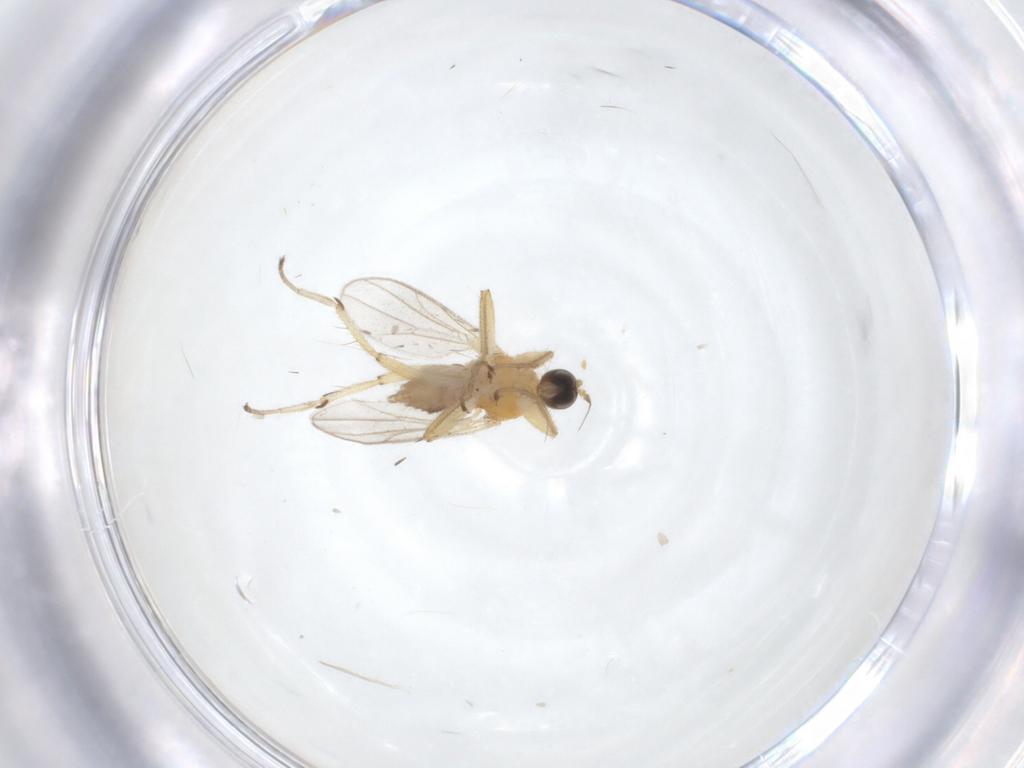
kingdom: Animalia
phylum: Arthropoda
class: Insecta
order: Diptera
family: Hybotidae
